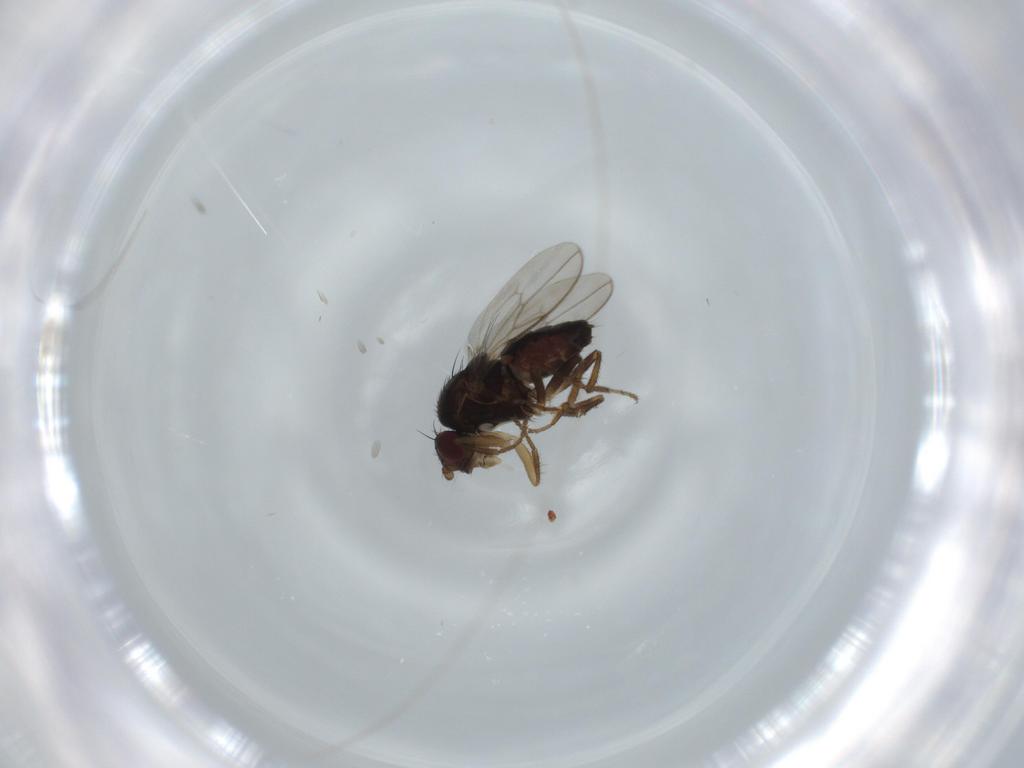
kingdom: Animalia
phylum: Arthropoda
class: Insecta
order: Diptera
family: Sphaeroceridae
